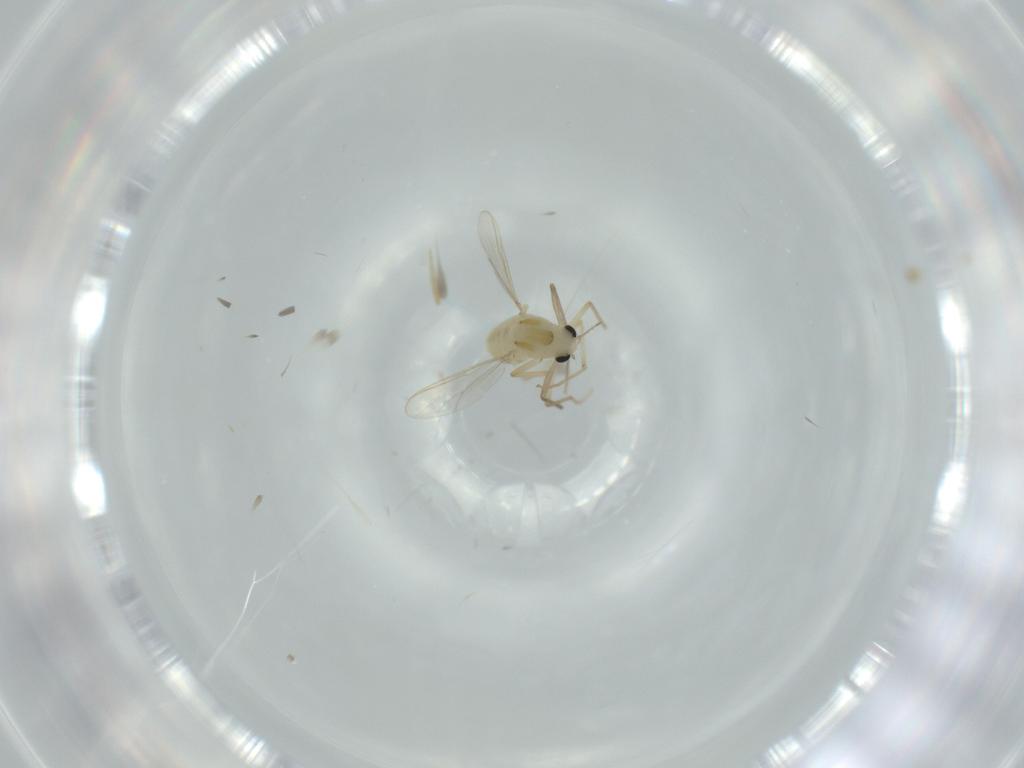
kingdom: Animalia
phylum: Arthropoda
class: Insecta
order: Diptera
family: Chironomidae
